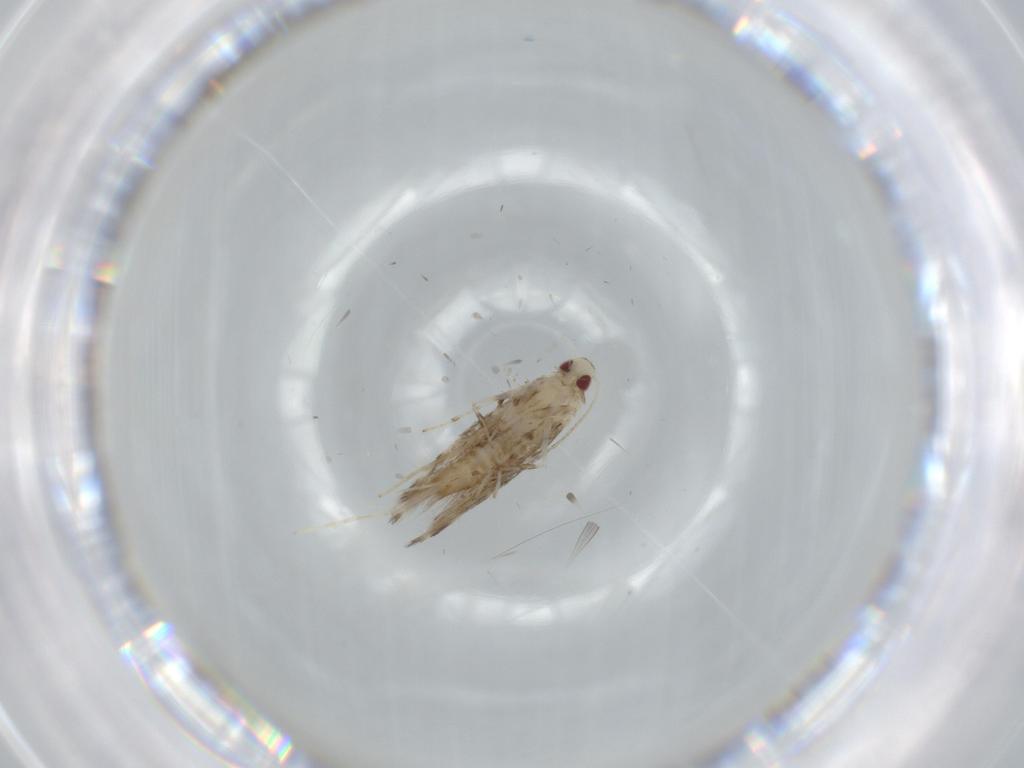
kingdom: Animalia
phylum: Arthropoda
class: Insecta
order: Lepidoptera
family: Gracillariidae
